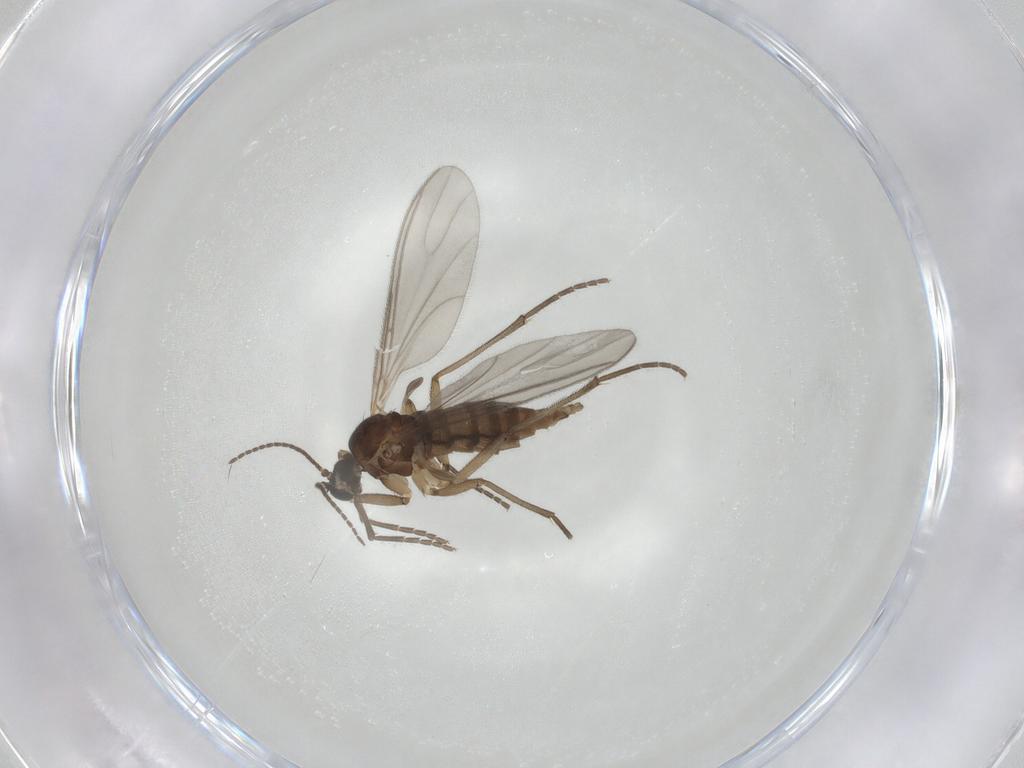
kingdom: Animalia
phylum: Arthropoda
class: Insecta
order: Diptera
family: Sciaridae
